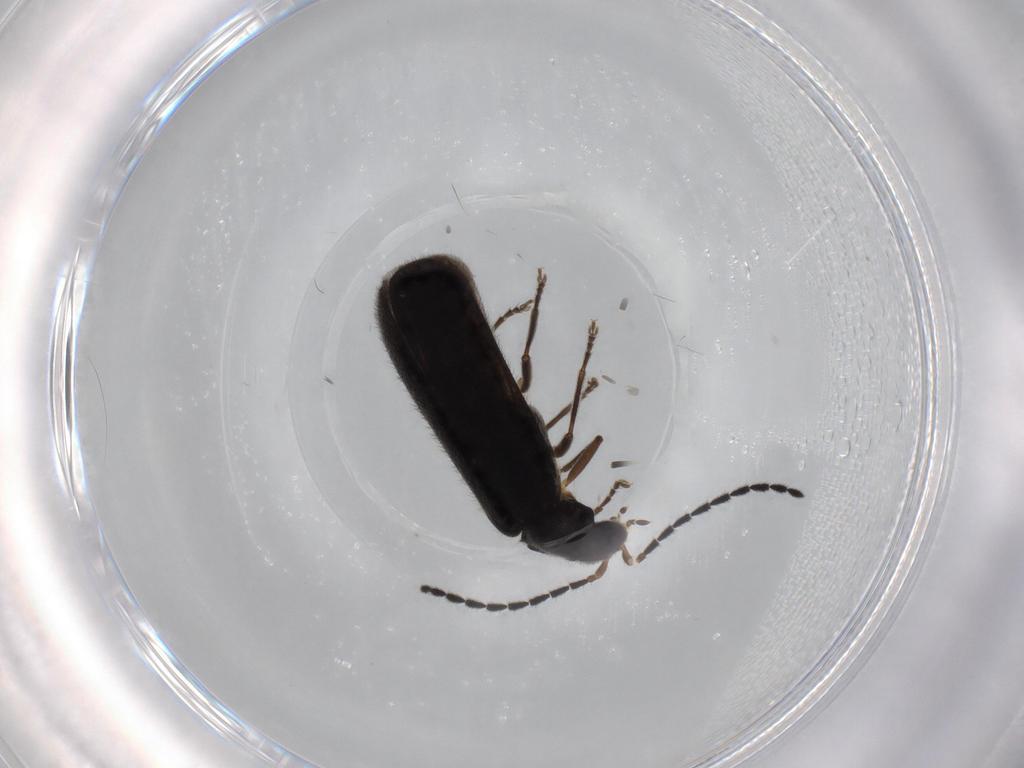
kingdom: Animalia
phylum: Arthropoda
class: Insecta
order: Coleoptera
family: Cantharidae
